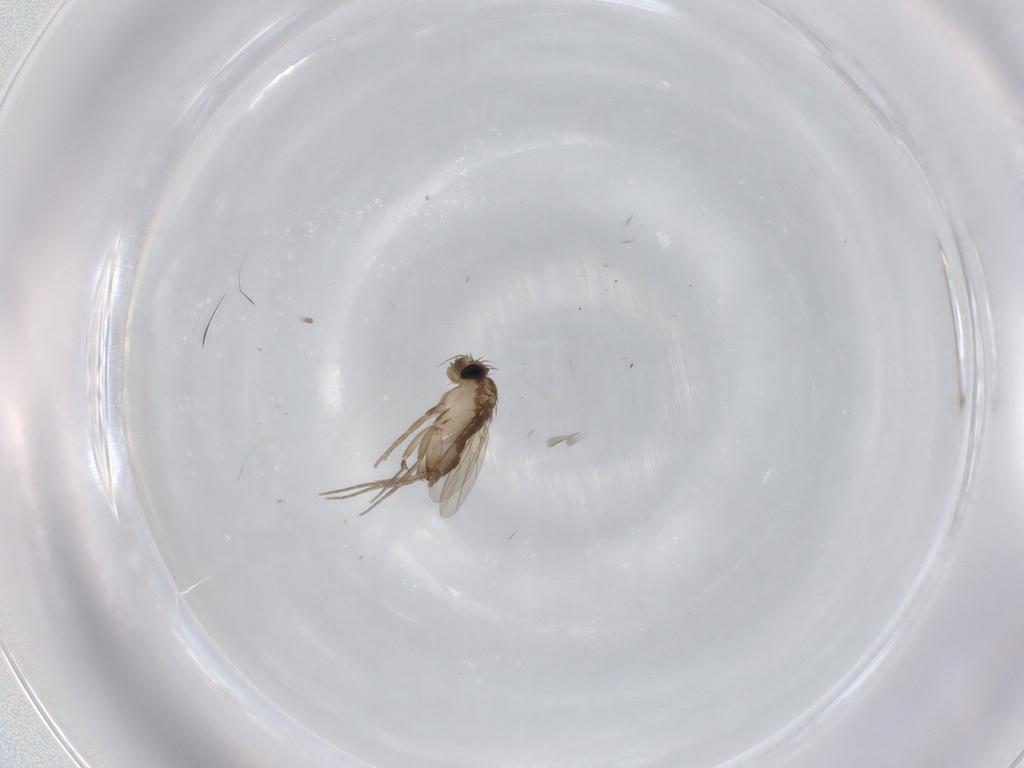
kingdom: Animalia
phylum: Arthropoda
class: Insecta
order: Diptera
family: Cecidomyiidae
